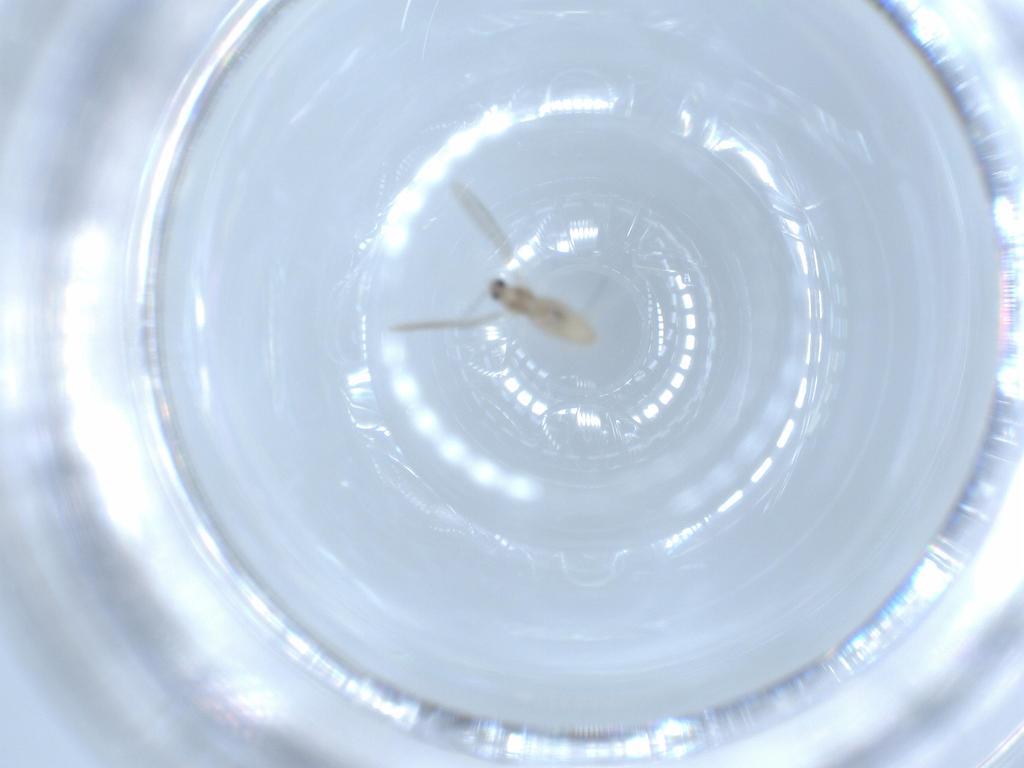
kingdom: Animalia
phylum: Arthropoda
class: Insecta
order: Diptera
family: Cecidomyiidae
